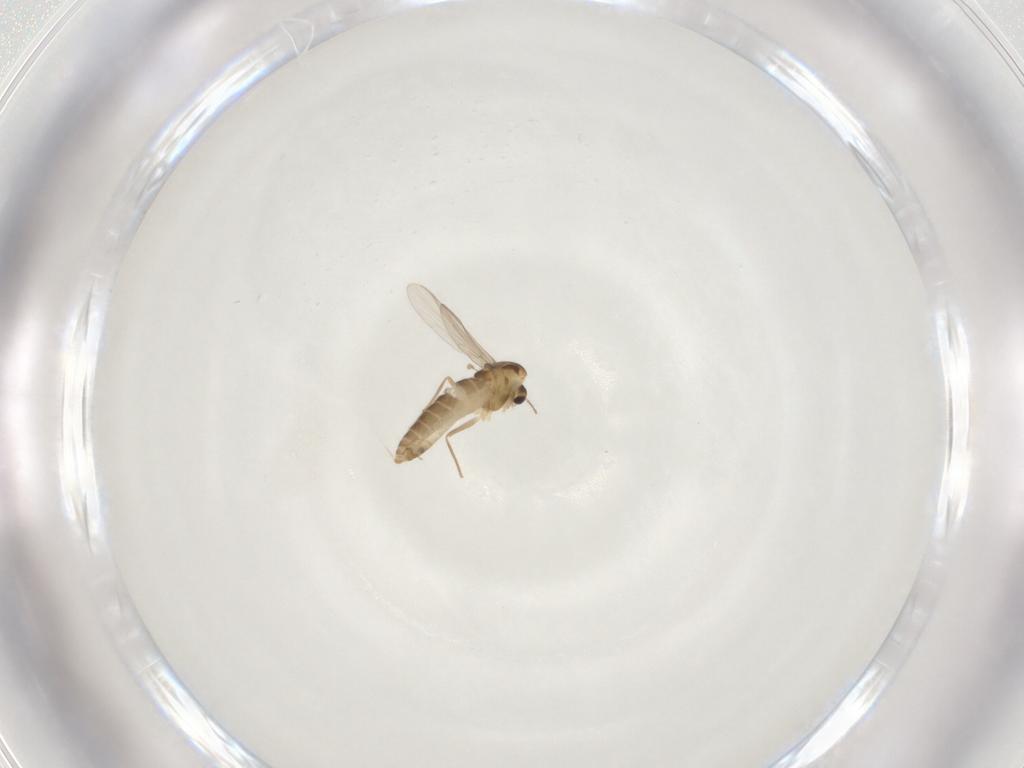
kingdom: Animalia
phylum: Arthropoda
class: Insecta
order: Diptera
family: Chironomidae
